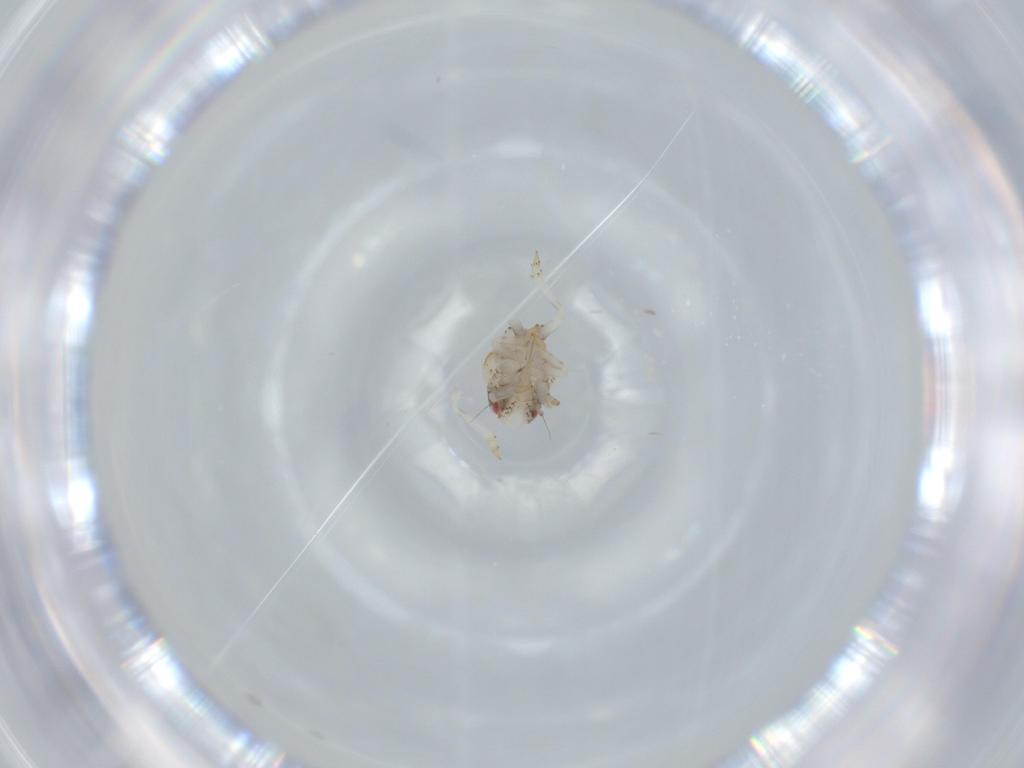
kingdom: Animalia
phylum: Arthropoda
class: Insecta
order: Hemiptera
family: Acanaloniidae
